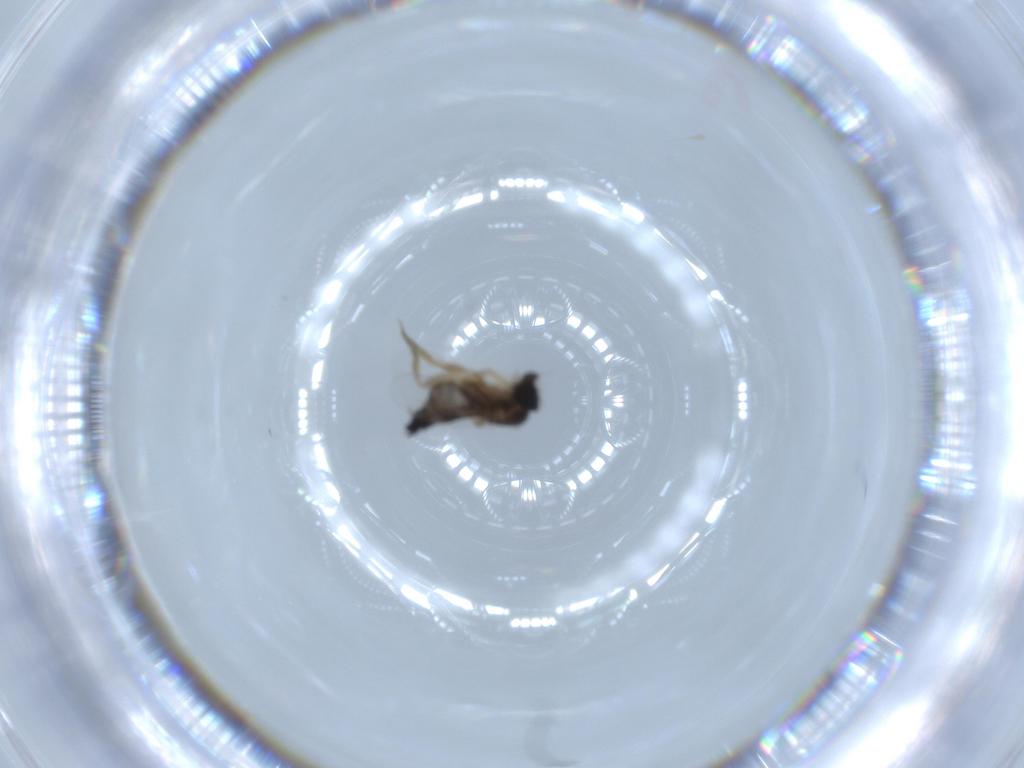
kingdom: Animalia
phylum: Arthropoda
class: Insecta
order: Diptera
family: Phoridae
